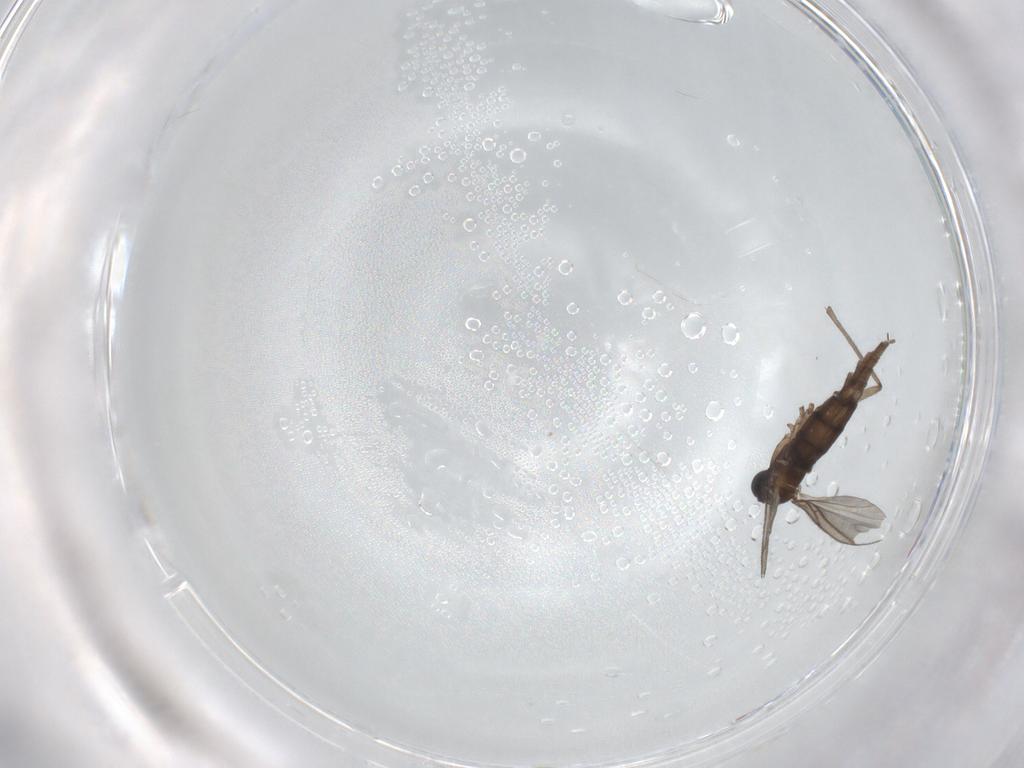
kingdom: Animalia
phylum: Arthropoda
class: Insecta
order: Diptera
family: Sciaridae
